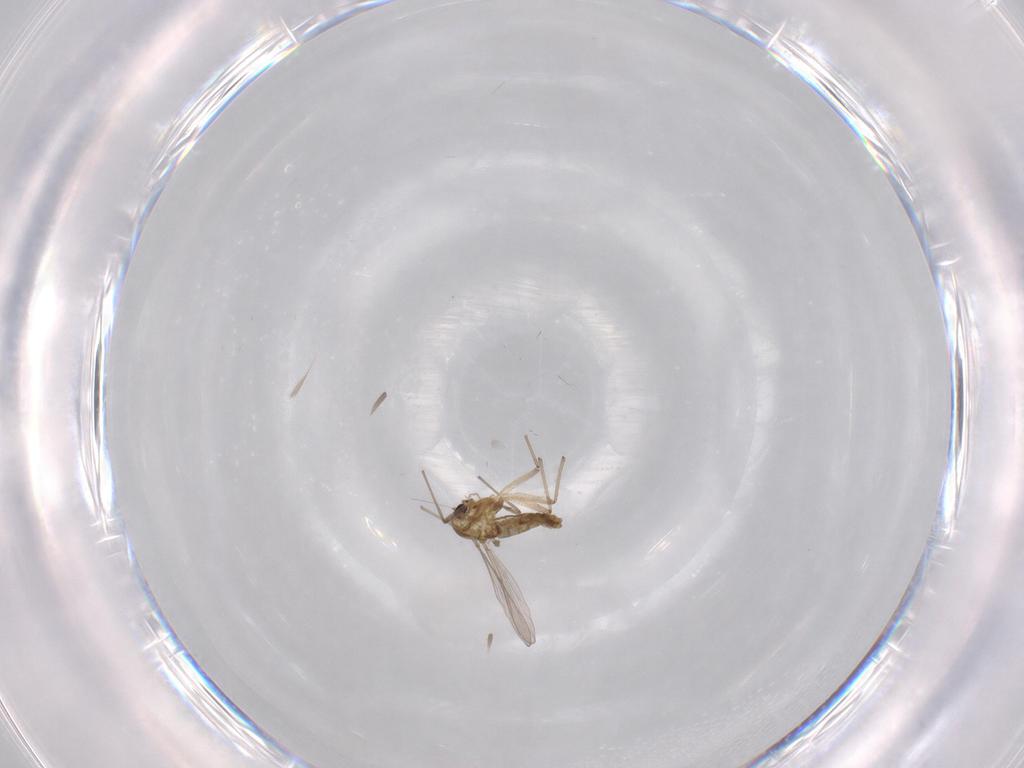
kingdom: Animalia
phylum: Arthropoda
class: Insecta
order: Diptera
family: Chironomidae
